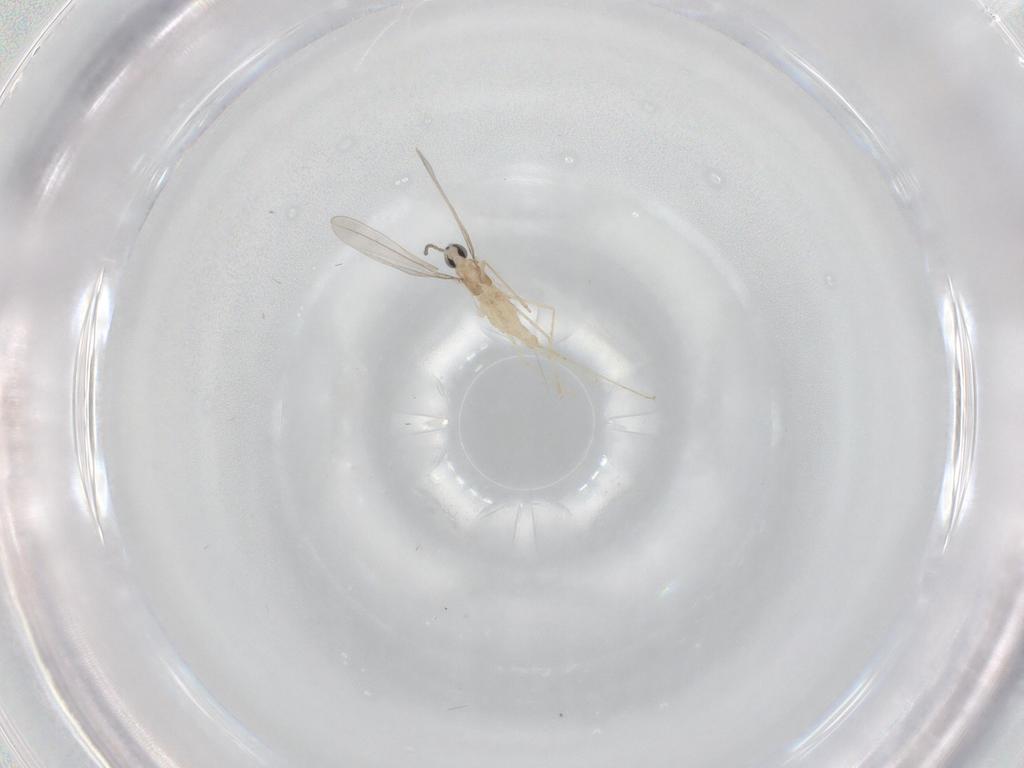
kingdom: Animalia
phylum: Arthropoda
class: Insecta
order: Diptera
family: Cecidomyiidae
